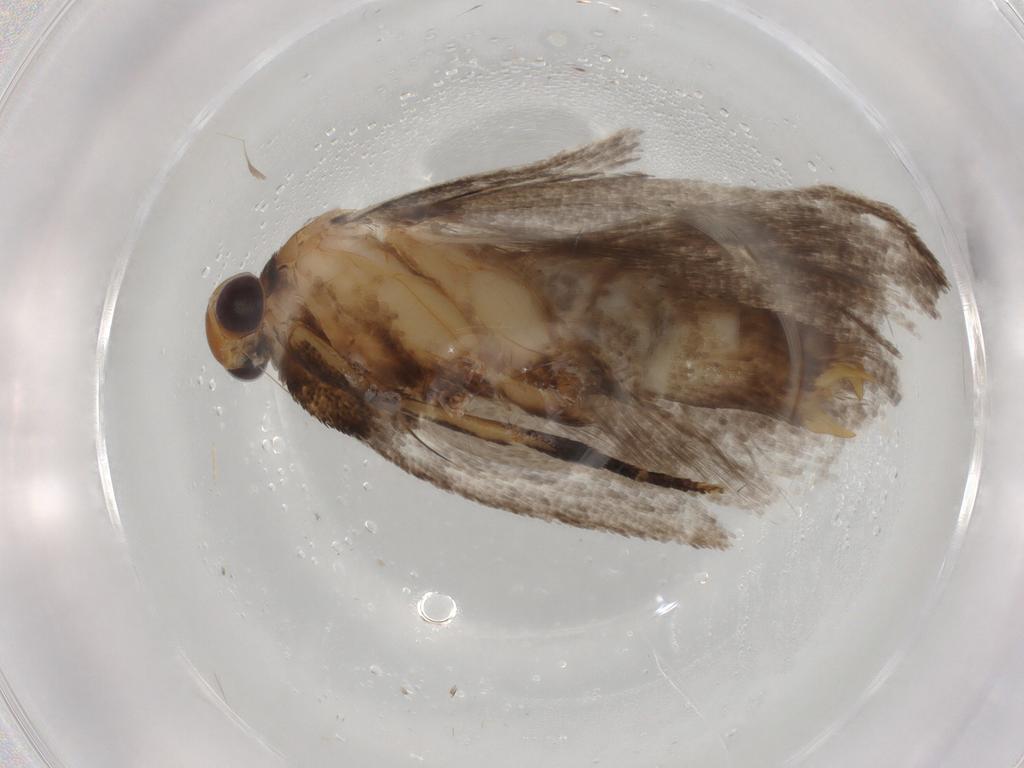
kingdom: Animalia
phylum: Arthropoda
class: Insecta
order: Lepidoptera
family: Oecophoridae
